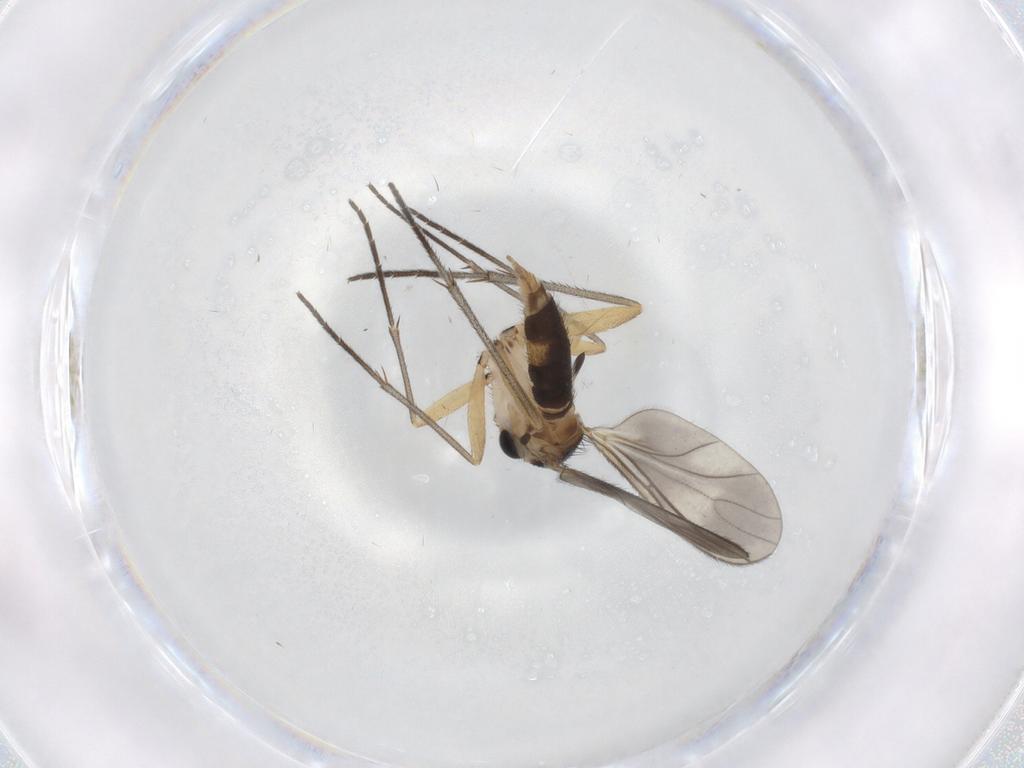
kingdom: Animalia
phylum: Arthropoda
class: Insecta
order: Diptera
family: Sciaridae
